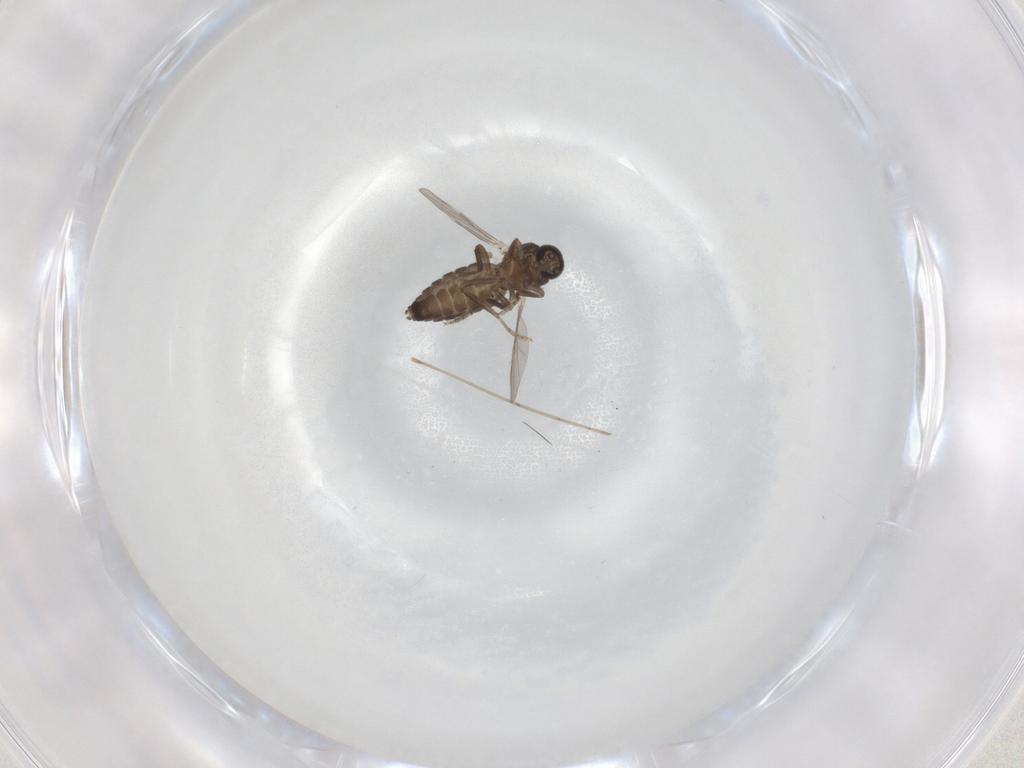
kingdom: Animalia
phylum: Arthropoda
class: Insecta
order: Diptera
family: Ceratopogonidae
